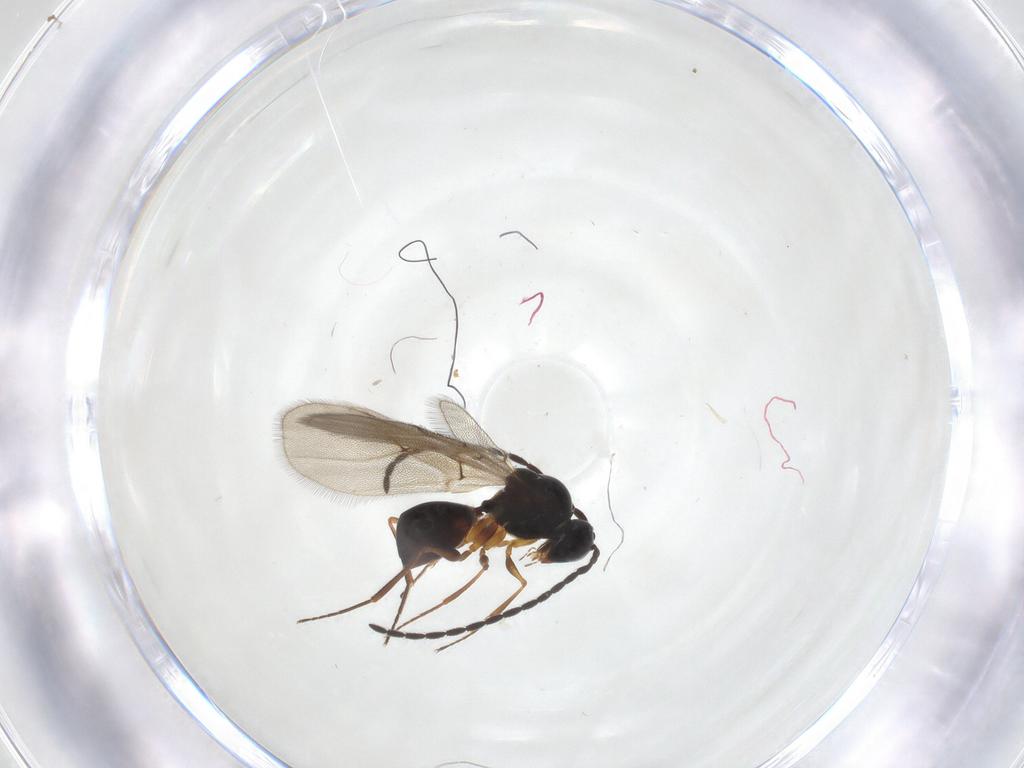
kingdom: Animalia
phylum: Arthropoda
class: Insecta
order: Hymenoptera
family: Figitidae
